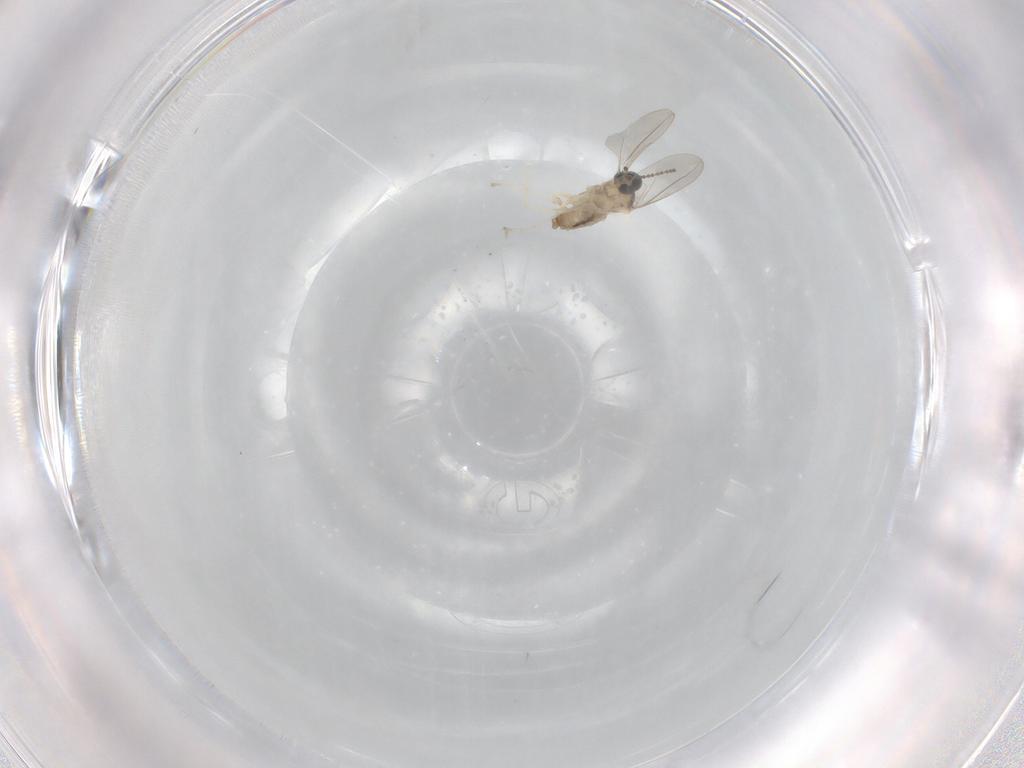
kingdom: Animalia
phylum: Arthropoda
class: Insecta
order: Diptera
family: Cecidomyiidae
